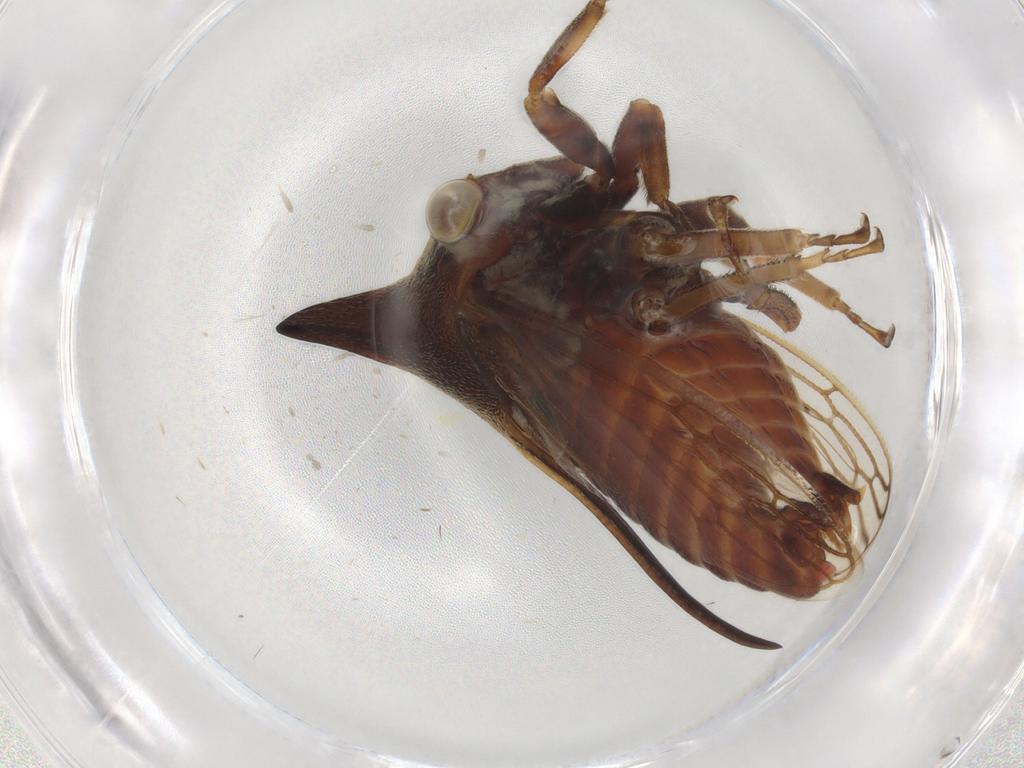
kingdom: Animalia
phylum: Arthropoda
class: Insecta
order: Hemiptera
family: Membracidae
